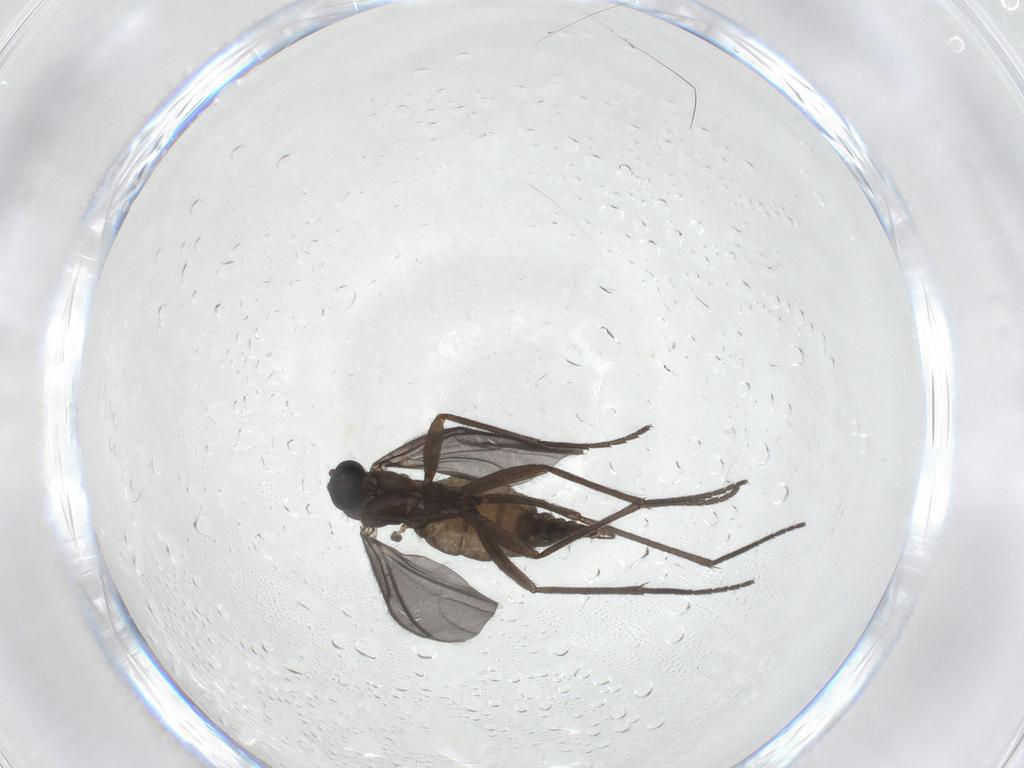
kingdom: Animalia
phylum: Arthropoda
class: Insecta
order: Diptera
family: Sciaridae
